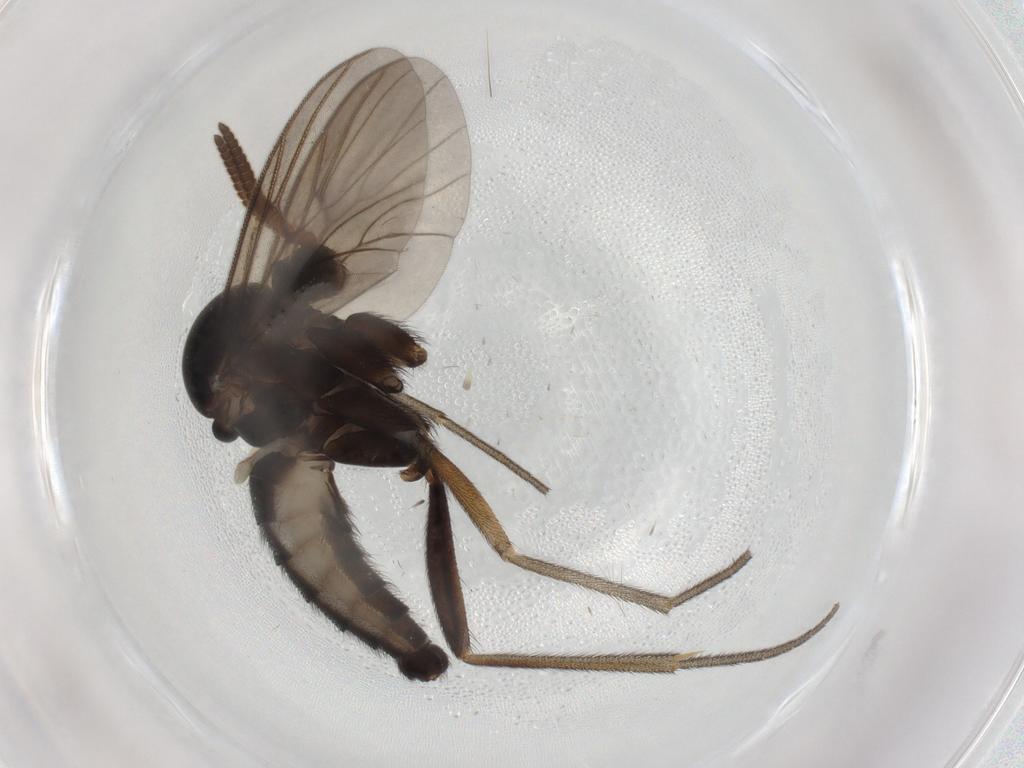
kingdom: Animalia
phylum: Arthropoda
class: Insecta
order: Diptera
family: Mycetophilidae
